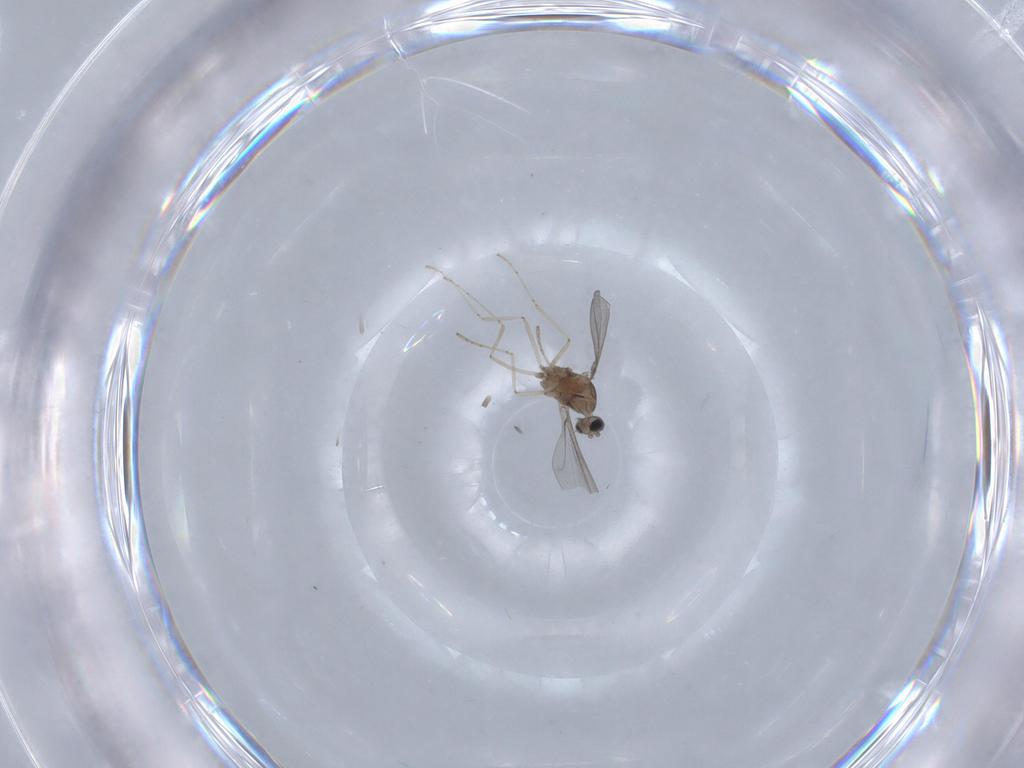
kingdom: Animalia
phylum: Arthropoda
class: Insecta
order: Diptera
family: Cecidomyiidae
